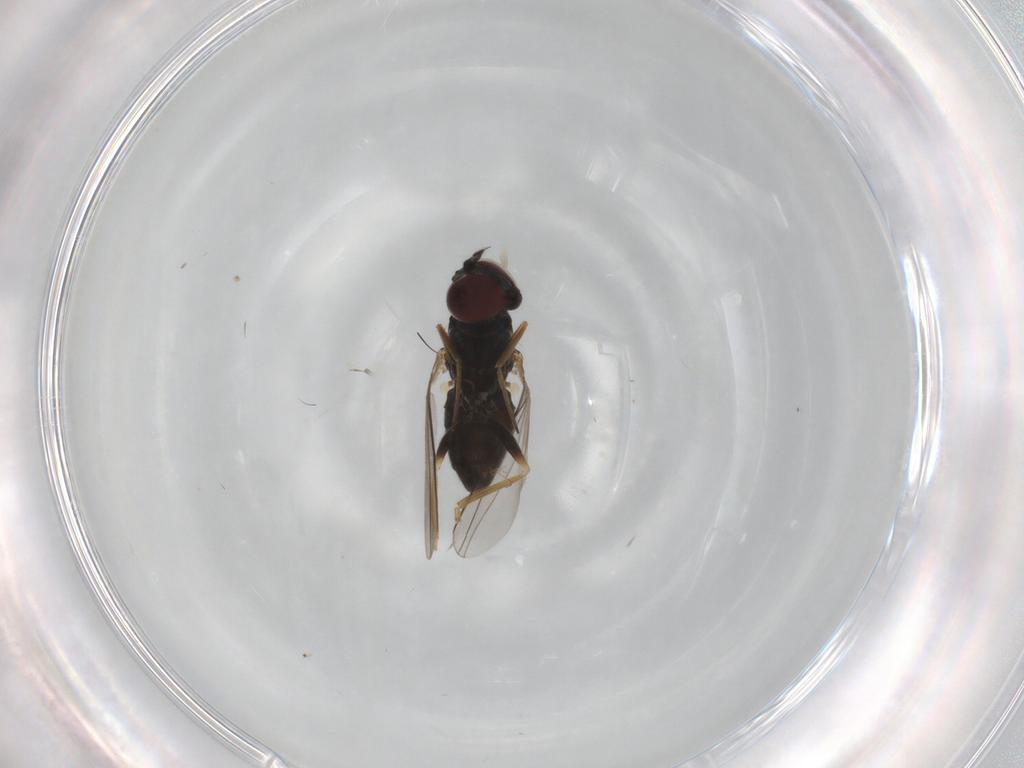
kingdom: Animalia
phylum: Arthropoda
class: Insecta
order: Diptera
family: Dolichopodidae
